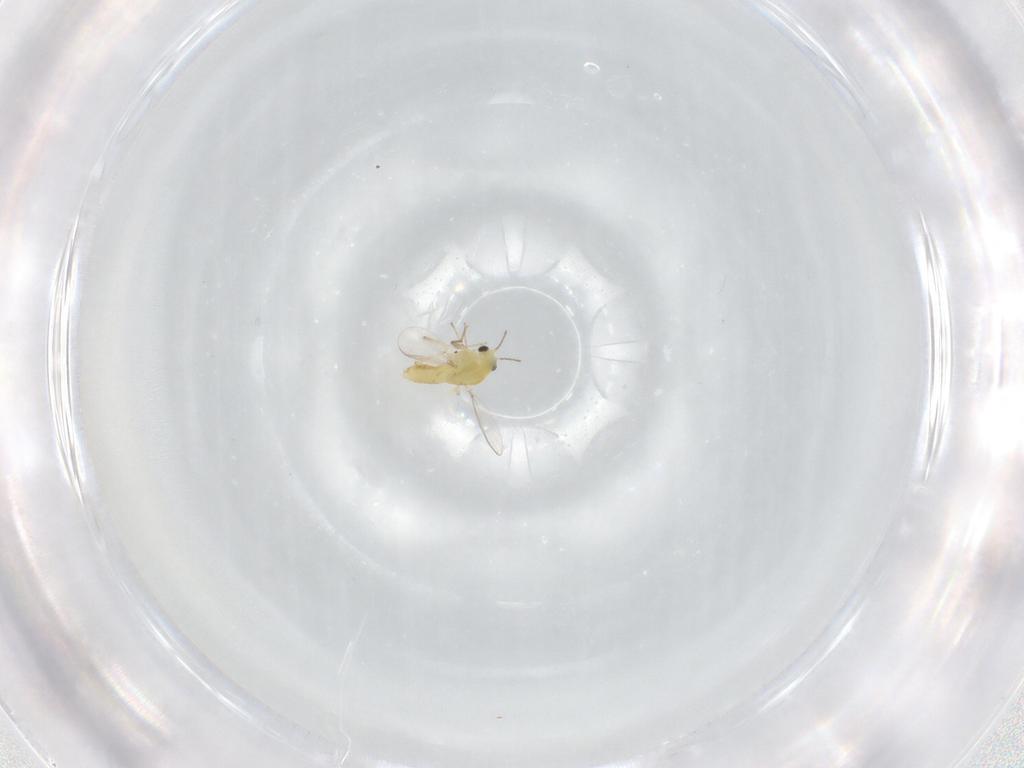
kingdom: Animalia
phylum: Arthropoda
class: Insecta
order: Diptera
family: Chironomidae
